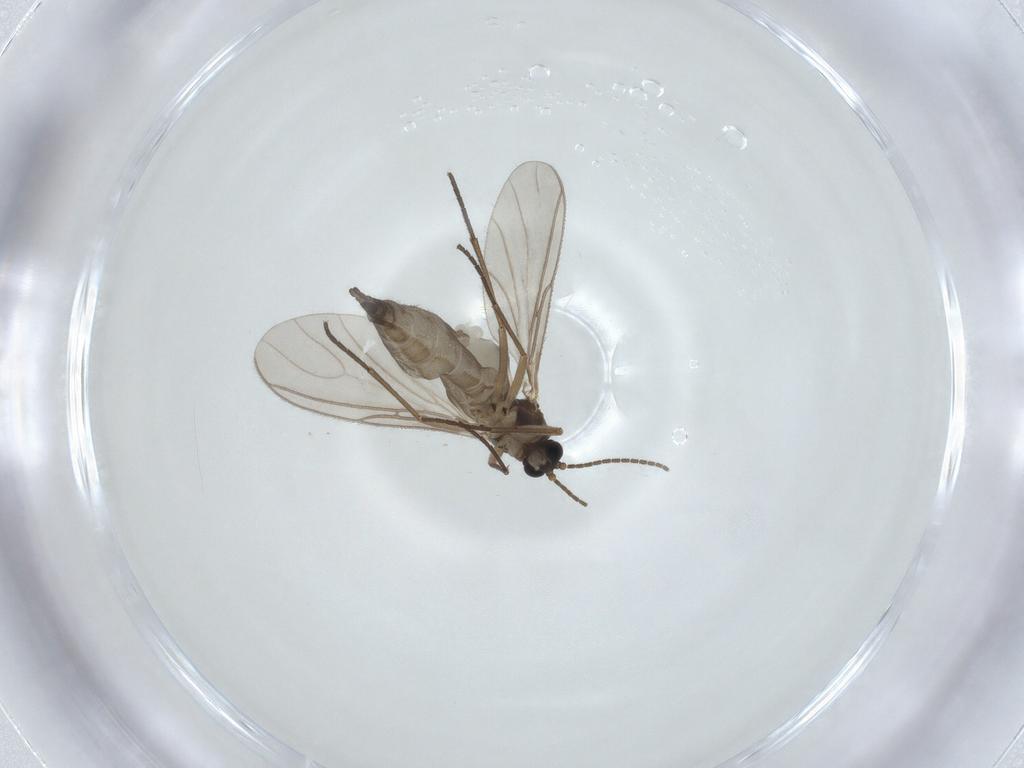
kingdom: Animalia
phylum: Arthropoda
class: Insecta
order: Diptera
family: Sciaridae
